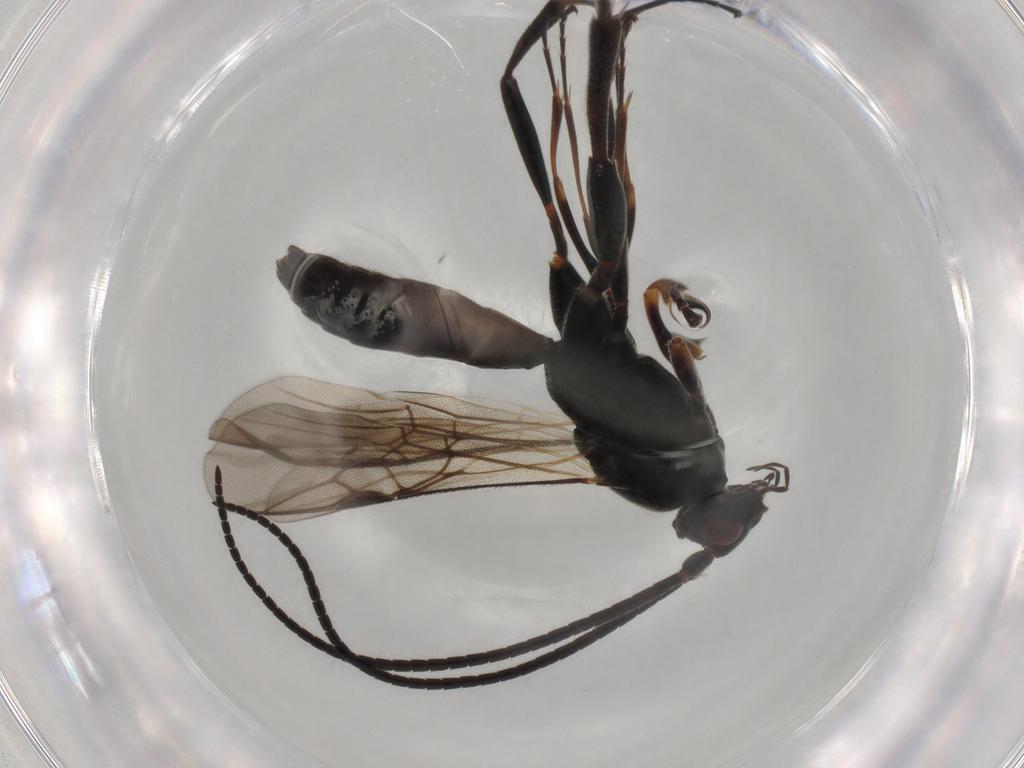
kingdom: Animalia
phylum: Arthropoda
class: Insecta
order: Hymenoptera
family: Braconidae
